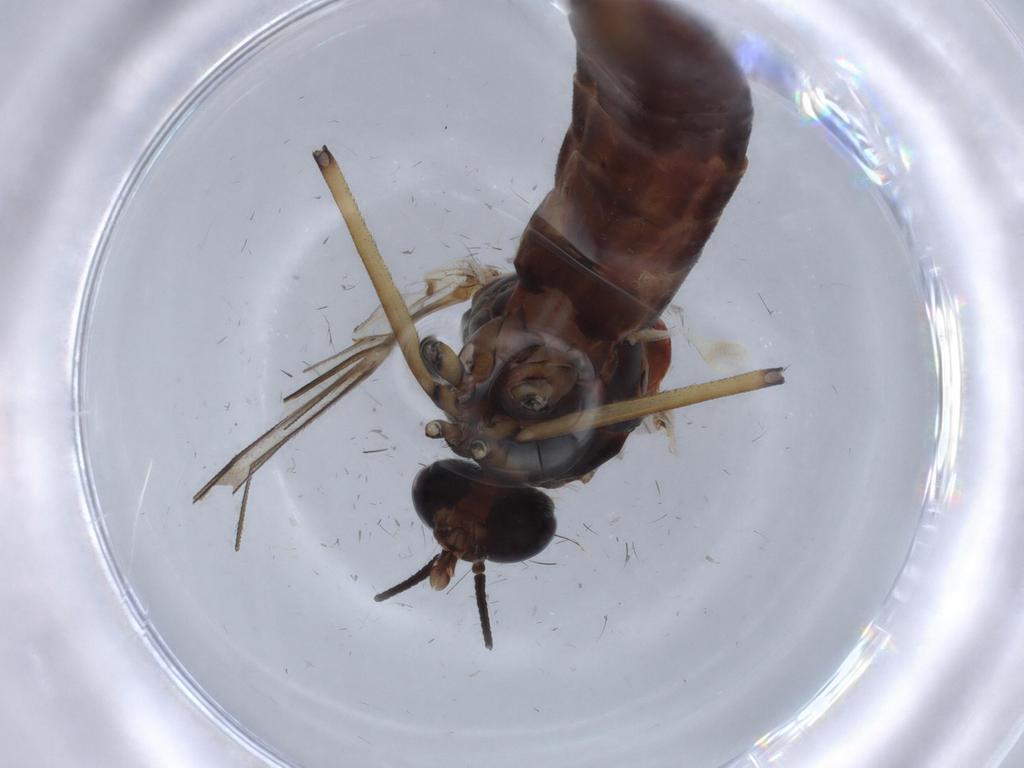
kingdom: Animalia
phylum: Arthropoda
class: Insecta
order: Diptera
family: Sciaridae
